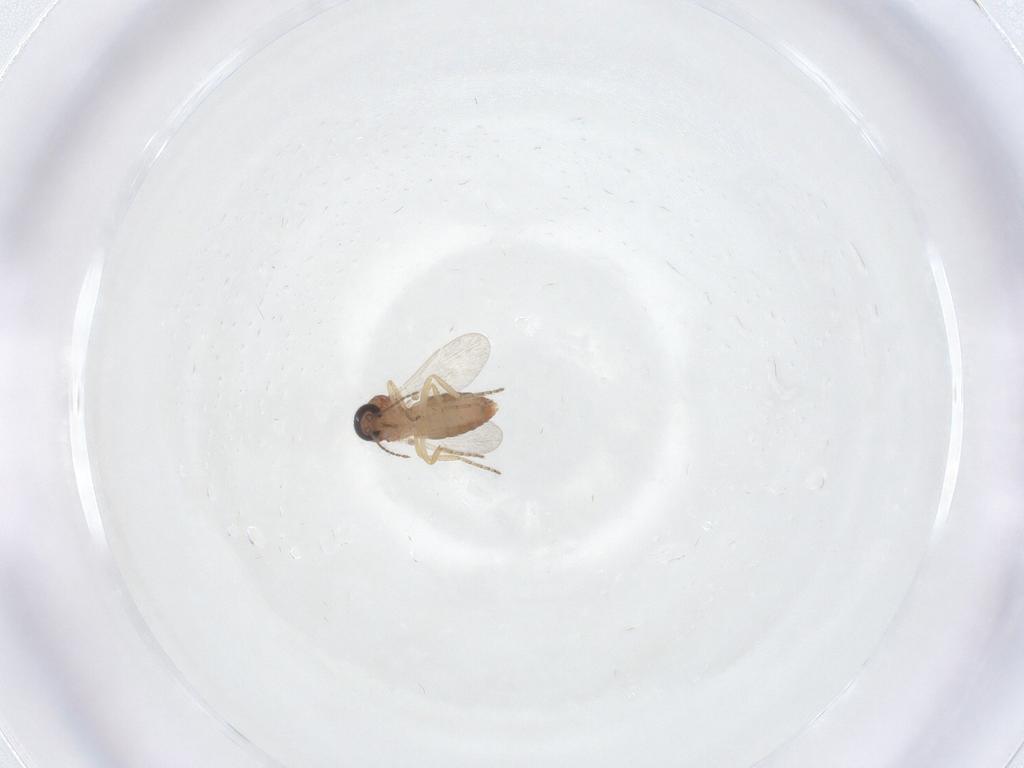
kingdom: Animalia
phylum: Arthropoda
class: Insecta
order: Diptera
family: Ceratopogonidae
